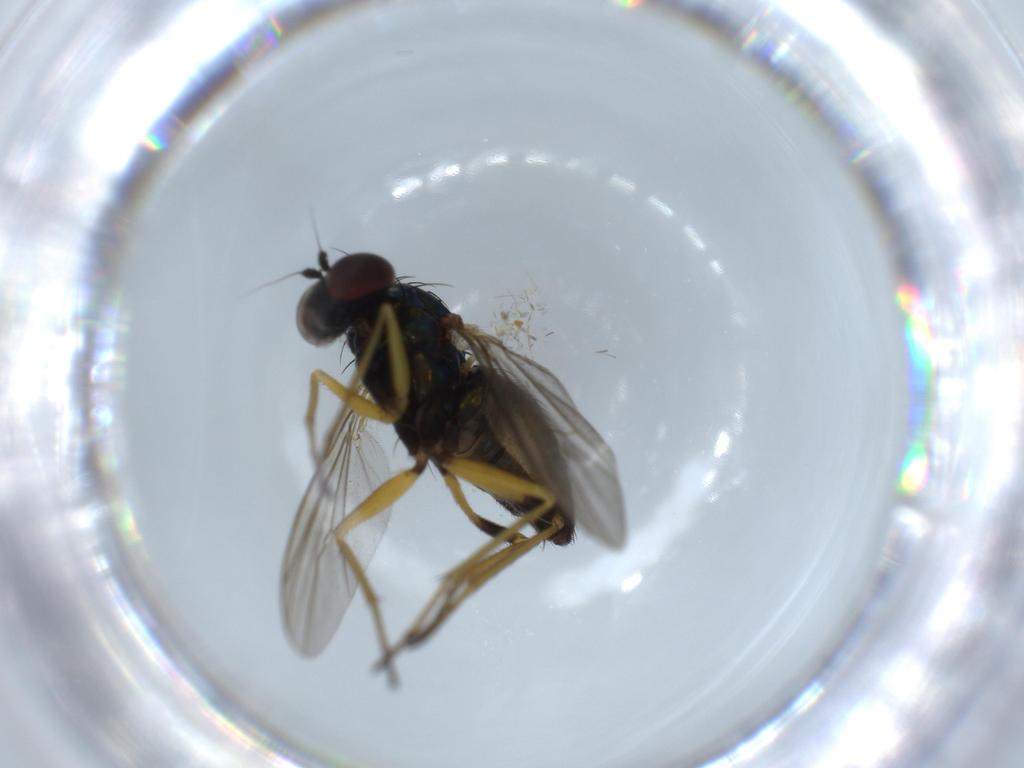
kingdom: Animalia
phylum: Arthropoda
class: Insecta
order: Diptera
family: Dolichopodidae
